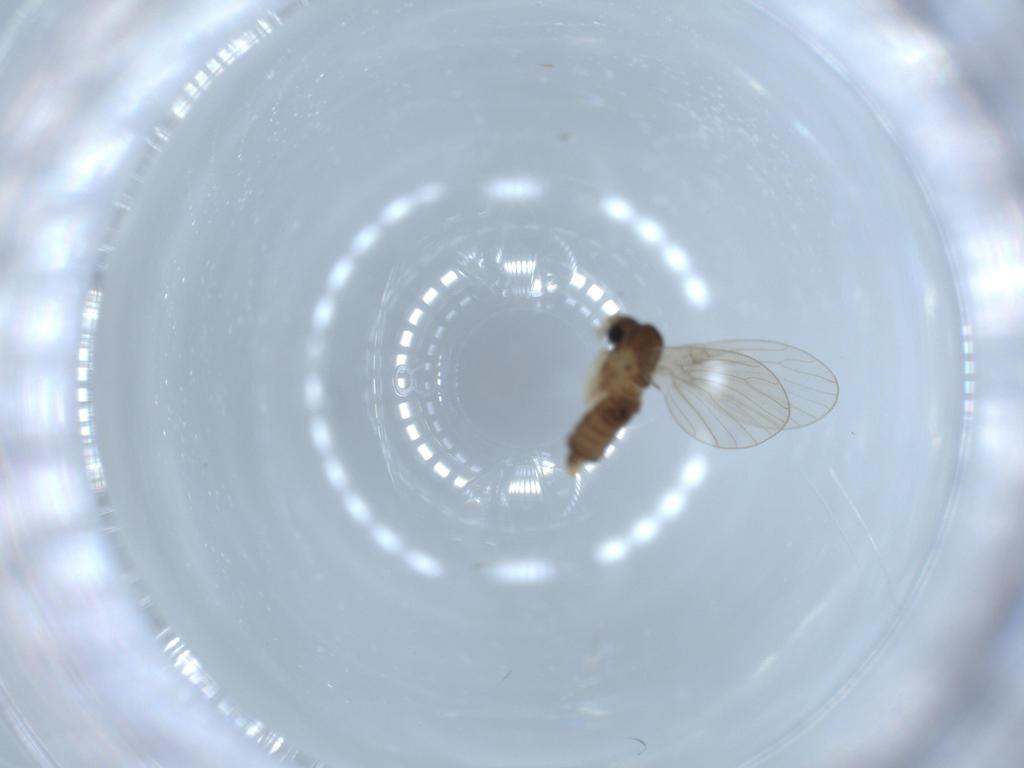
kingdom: Animalia
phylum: Arthropoda
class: Insecta
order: Diptera
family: Psychodidae
